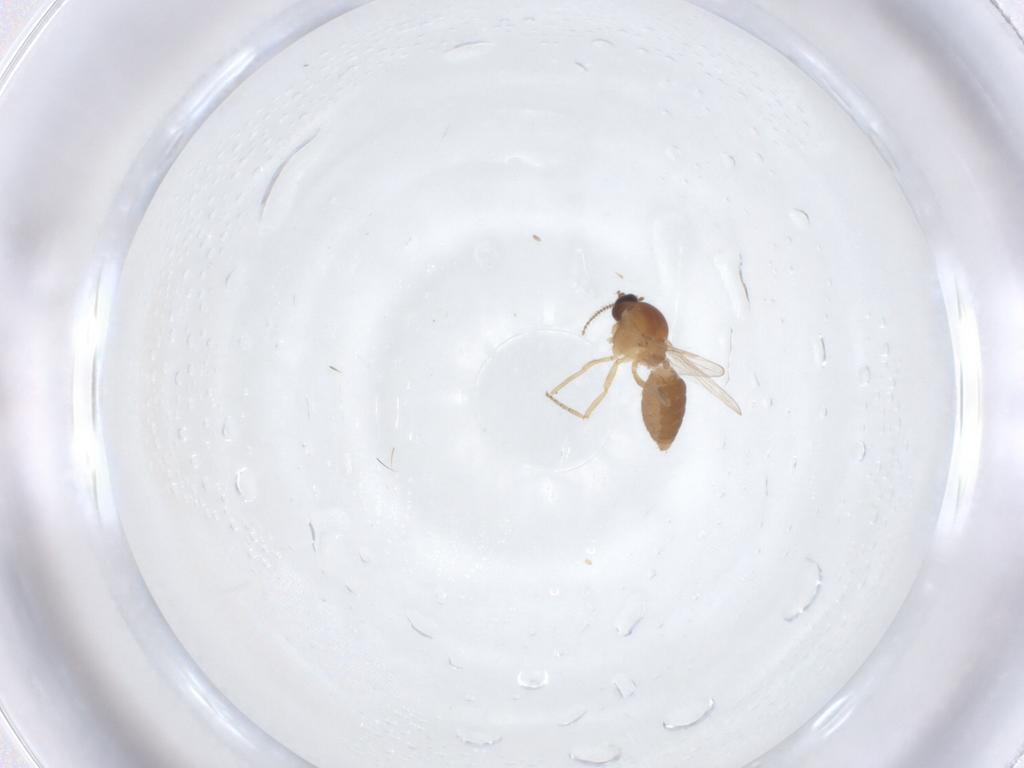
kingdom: Animalia
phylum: Arthropoda
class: Insecta
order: Diptera
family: Ceratopogonidae
